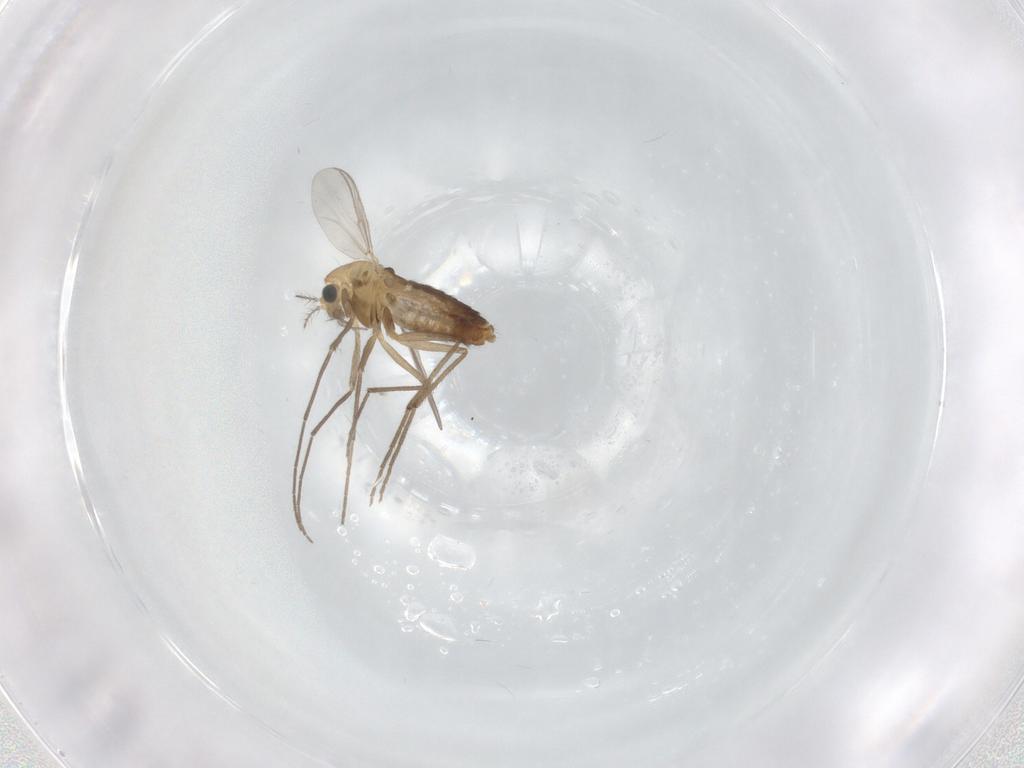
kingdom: Animalia
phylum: Arthropoda
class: Insecta
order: Diptera
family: Chironomidae
